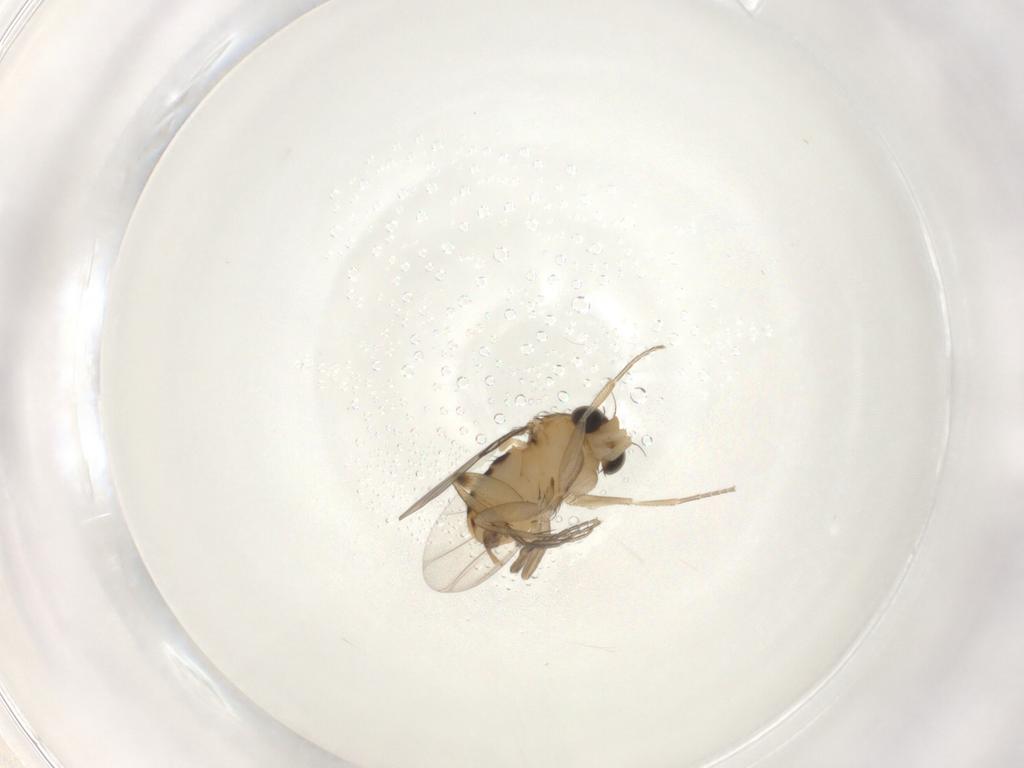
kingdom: Animalia
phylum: Arthropoda
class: Insecta
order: Diptera
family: Phoridae
